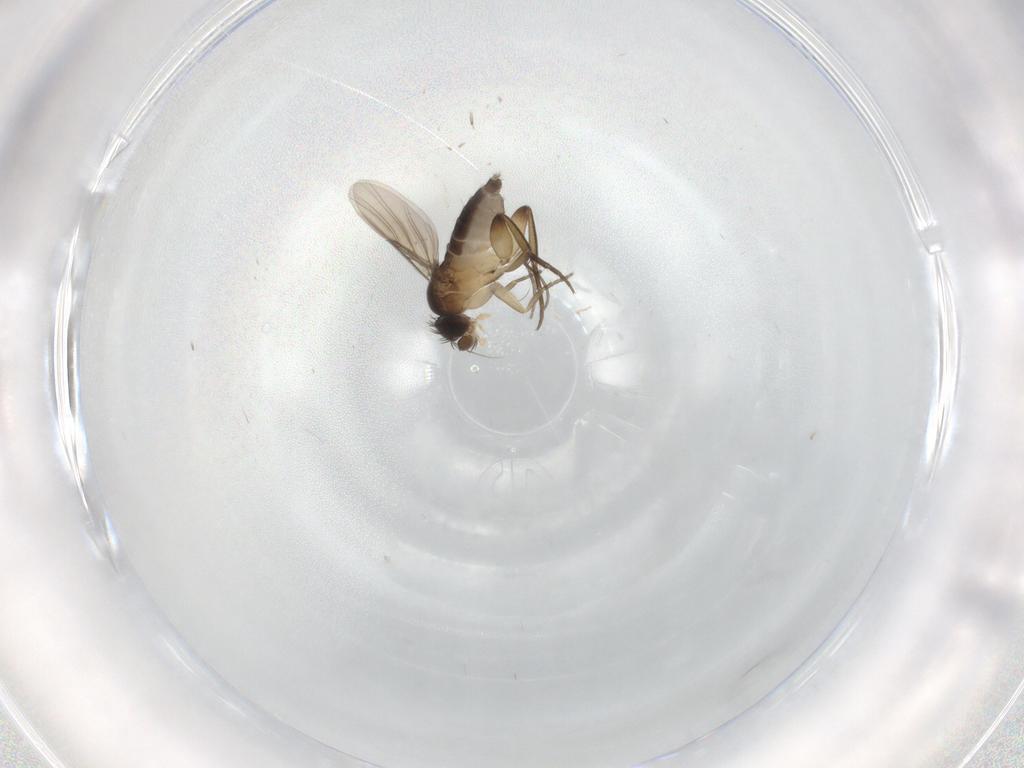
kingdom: Animalia
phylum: Arthropoda
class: Insecta
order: Diptera
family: Phoridae
